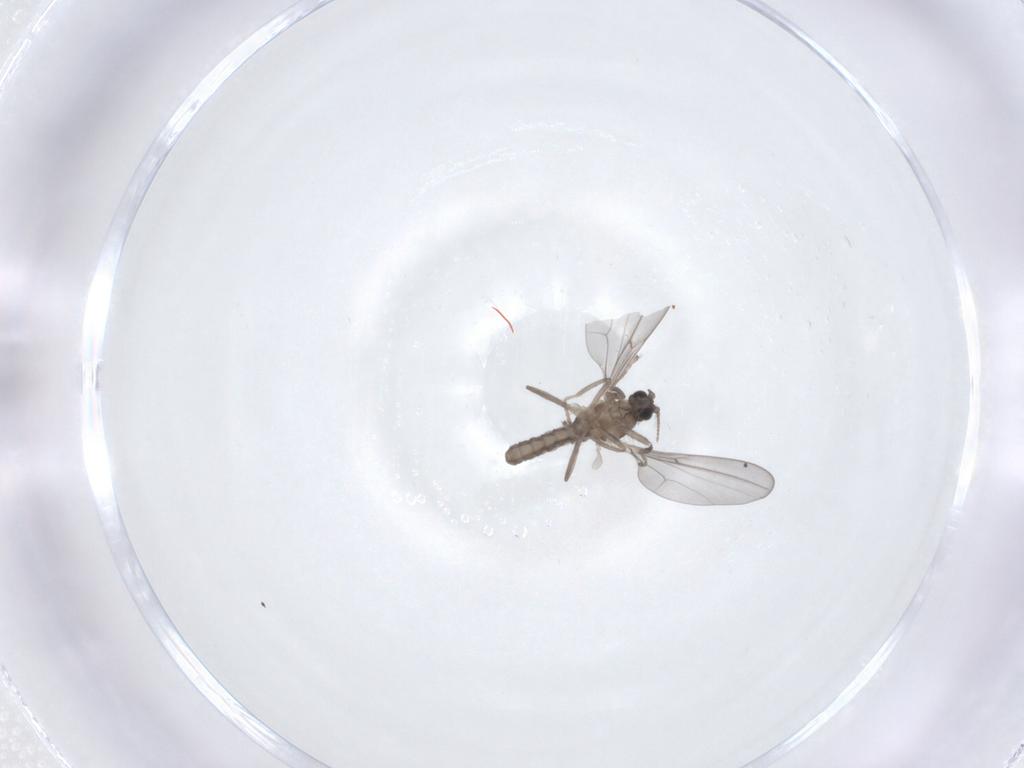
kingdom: Animalia
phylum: Arthropoda
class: Insecta
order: Diptera
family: Cecidomyiidae
